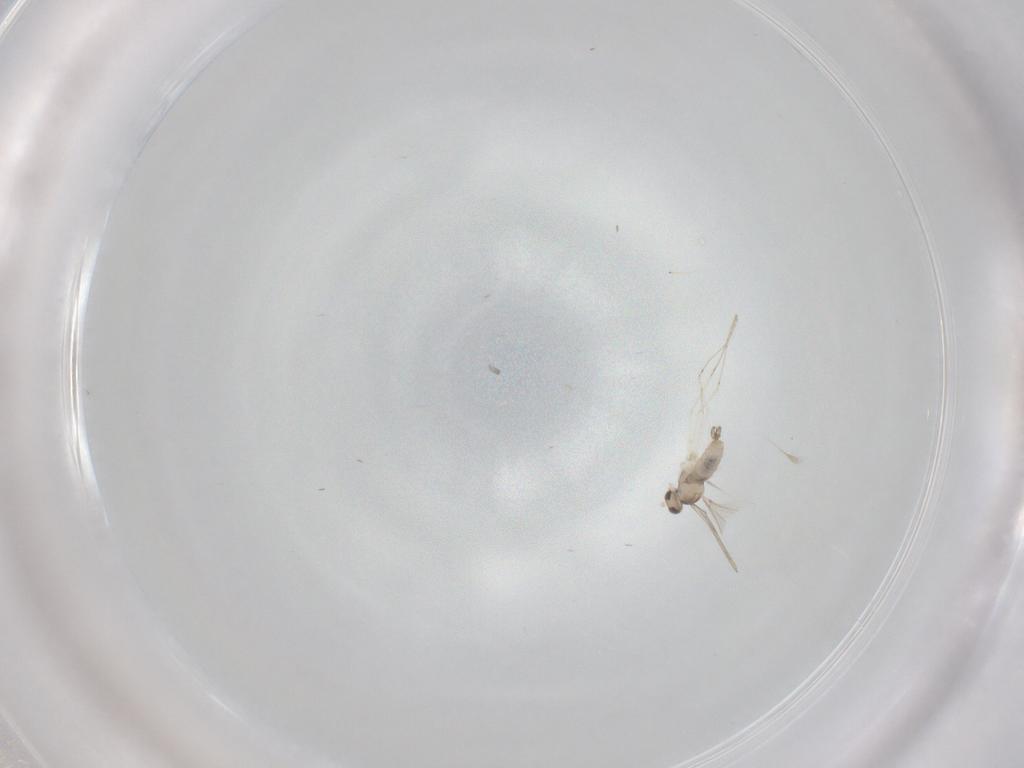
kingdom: Animalia
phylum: Arthropoda
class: Insecta
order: Diptera
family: Cecidomyiidae
